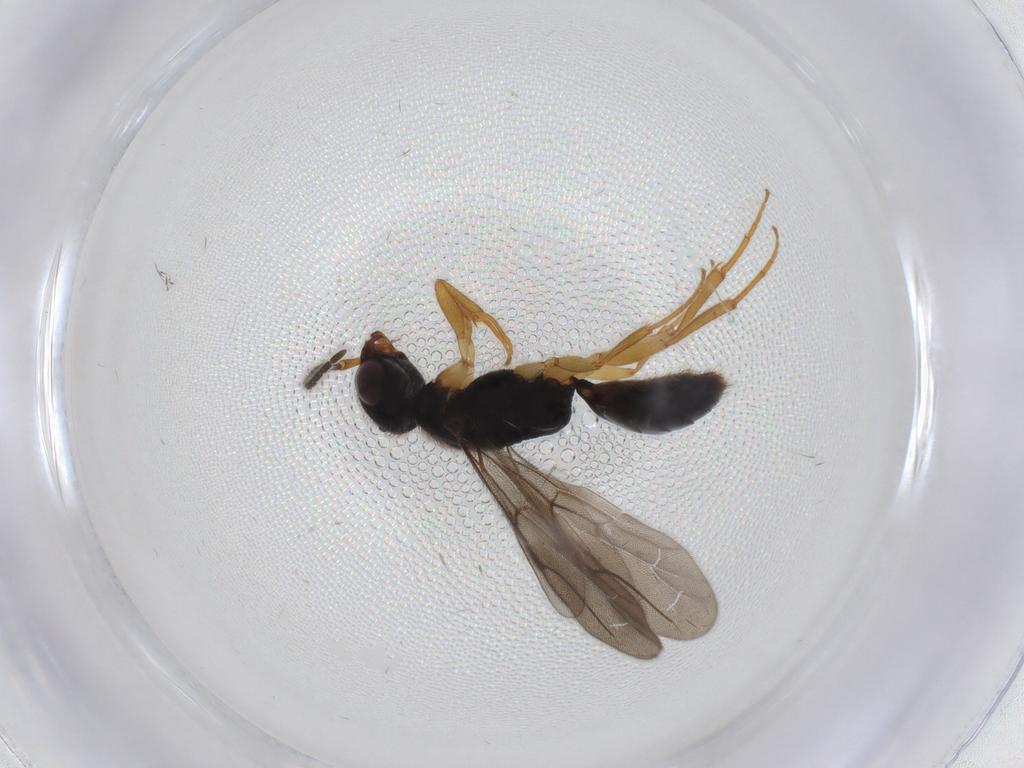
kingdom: Animalia
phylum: Arthropoda
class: Insecta
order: Hymenoptera
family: Bethylidae
